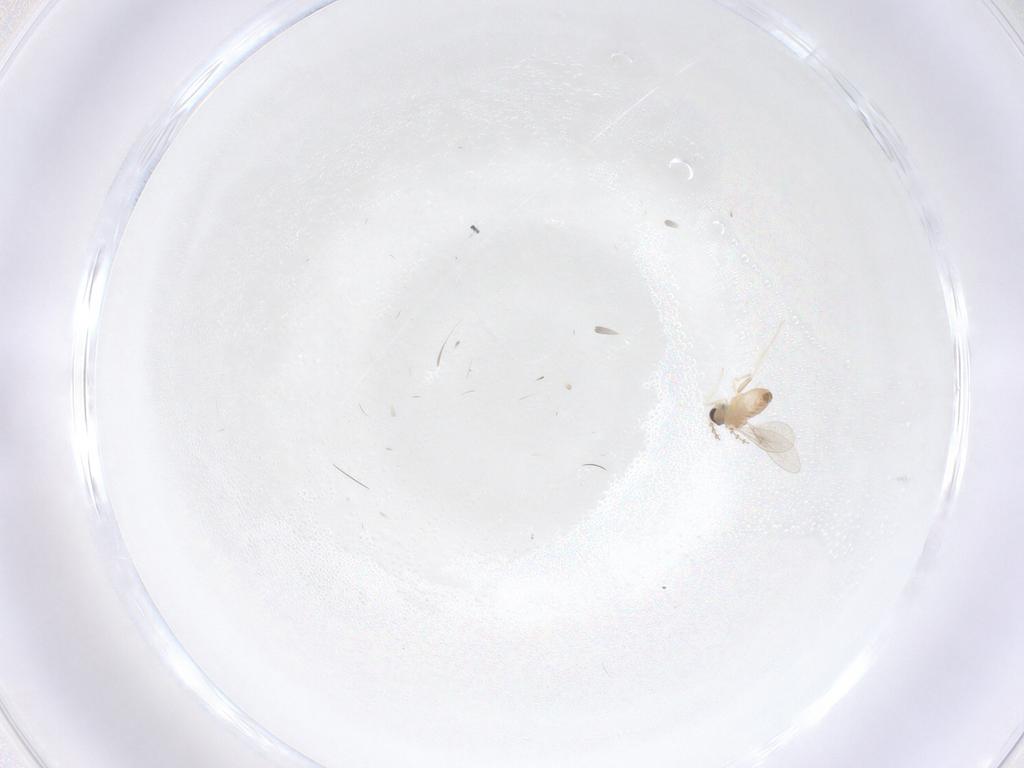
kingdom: Animalia
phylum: Arthropoda
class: Insecta
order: Diptera
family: Cecidomyiidae
